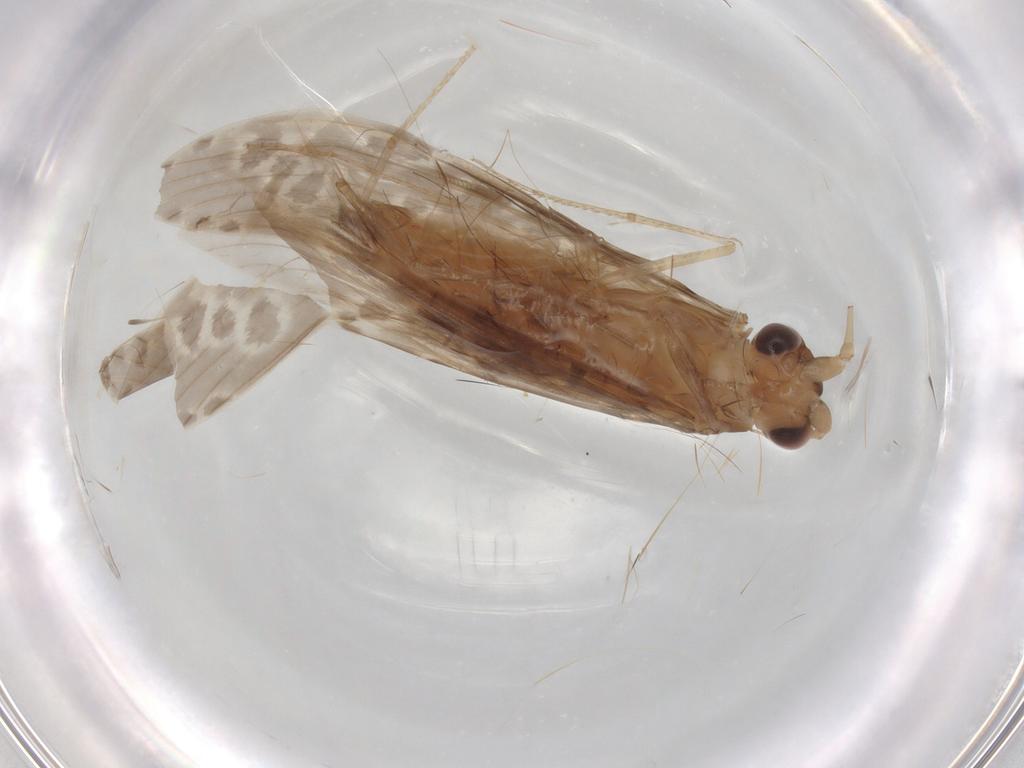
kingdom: Animalia
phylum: Arthropoda
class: Insecta
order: Trichoptera
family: Leptoceridae
